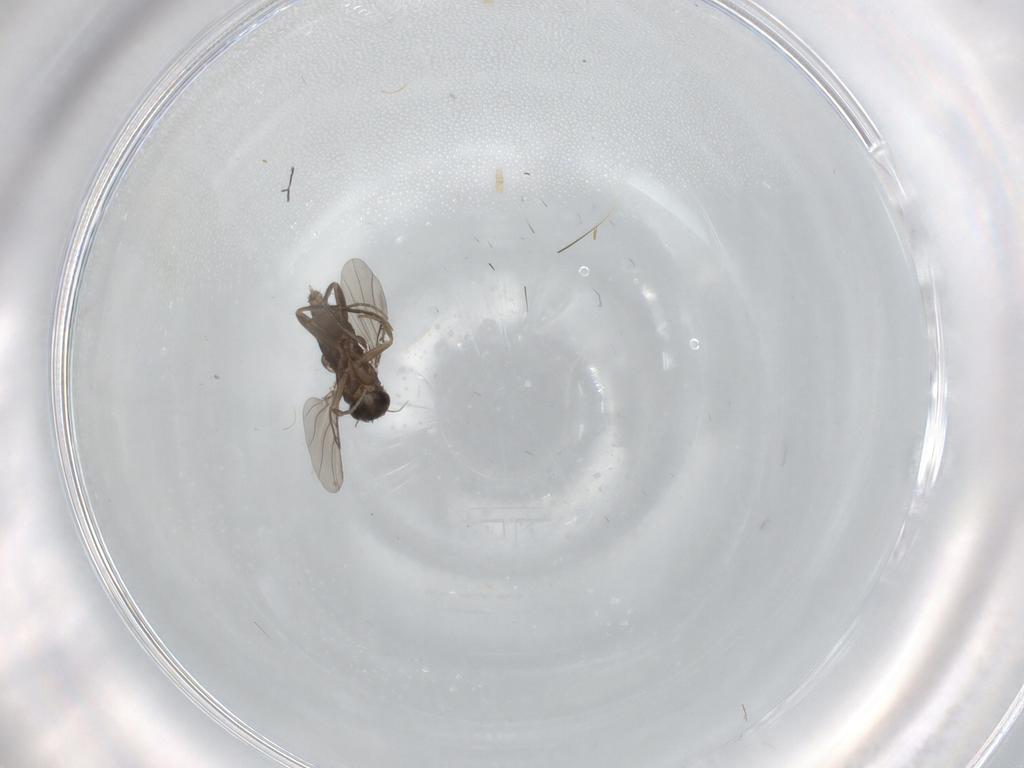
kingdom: Animalia
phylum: Arthropoda
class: Insecta
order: Diptera
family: Phoridae
